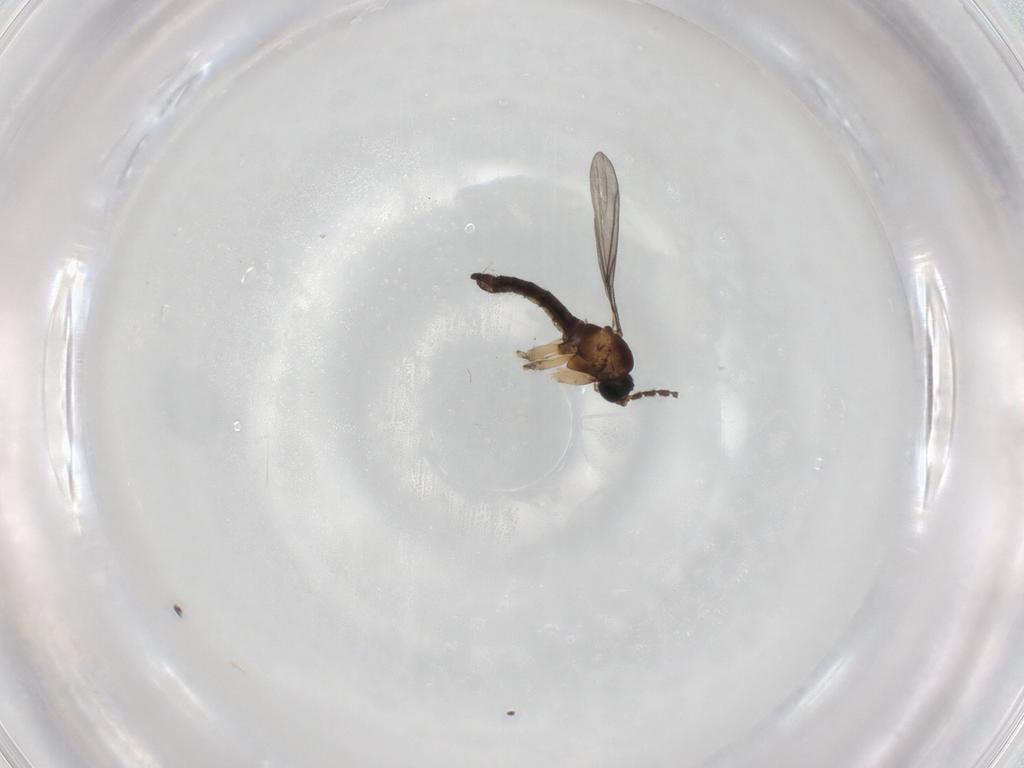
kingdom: Animalia
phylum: Arthropoda
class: Insecta
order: Diptera
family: Sciaridae
